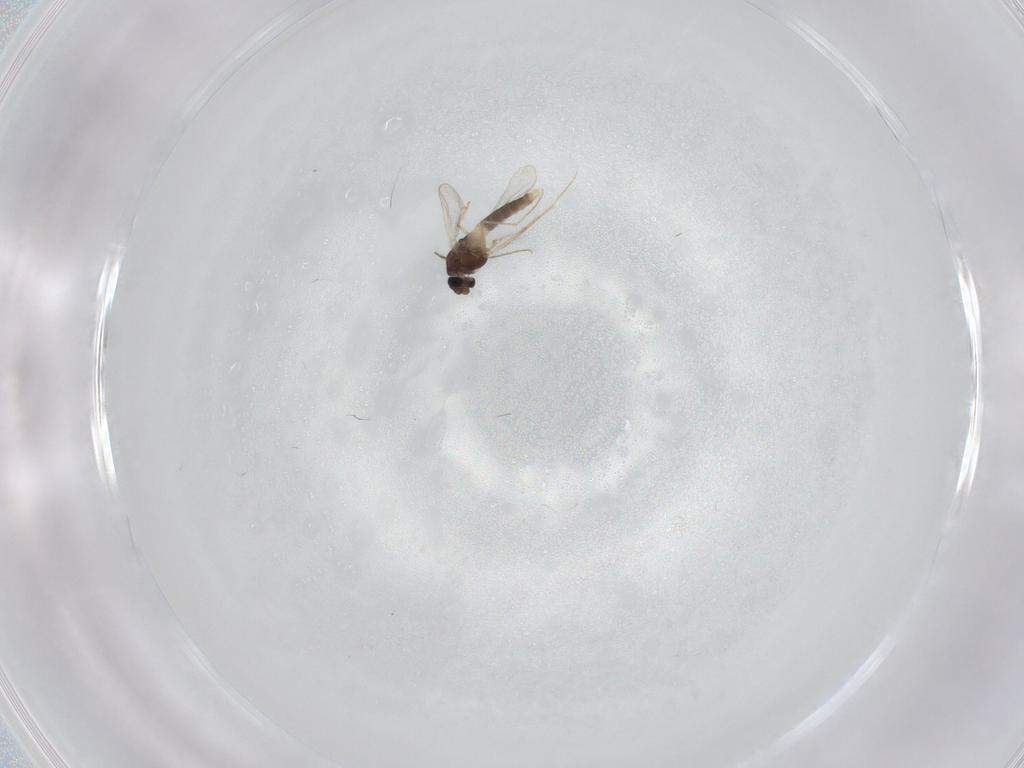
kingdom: Animalia
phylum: Arthropoda
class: Insecta
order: Diptera
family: Cecidomyiidae
